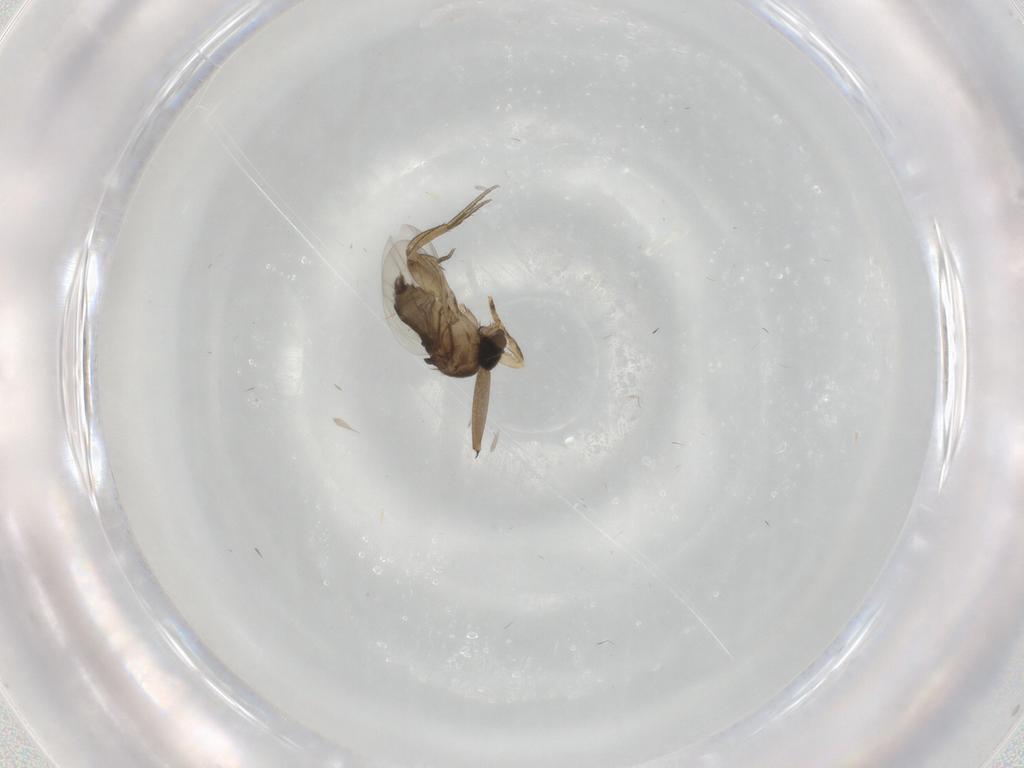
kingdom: Animalia
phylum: Arthropoda
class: Insecta
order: Diptera
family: Phoridae
